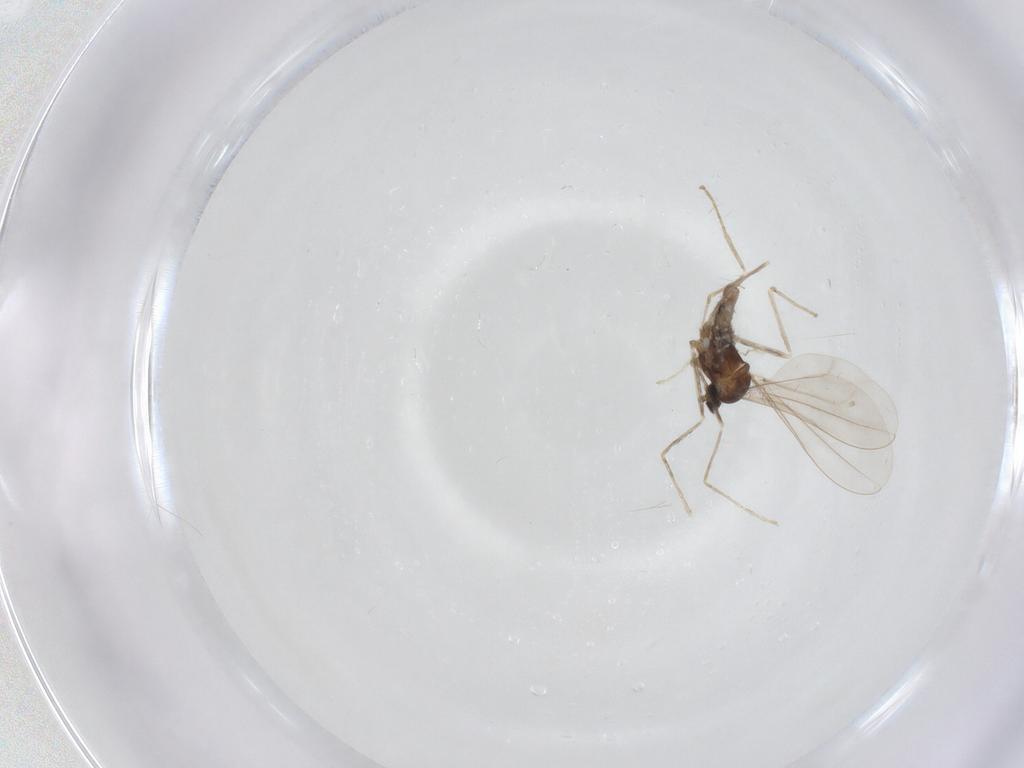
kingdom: Animalia
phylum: Arthropoda
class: Insecta
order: Diptera
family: Cecidomyiidae
